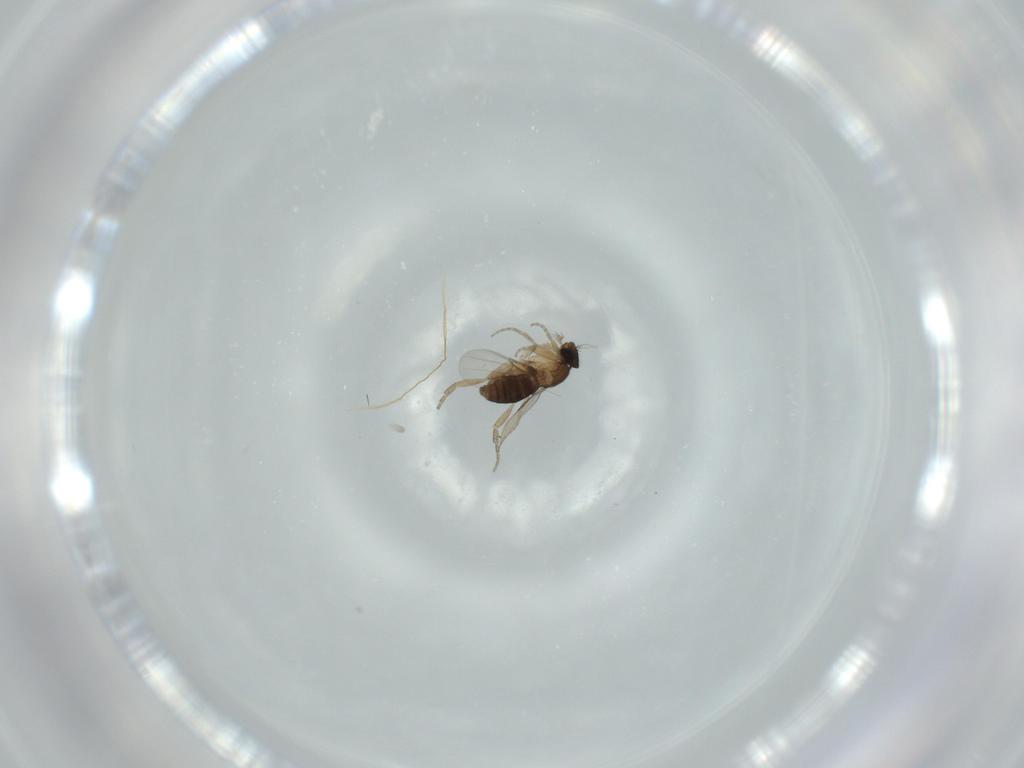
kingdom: Animalia
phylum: Arthropoda
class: Insecta
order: Diptera
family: Phoridae
